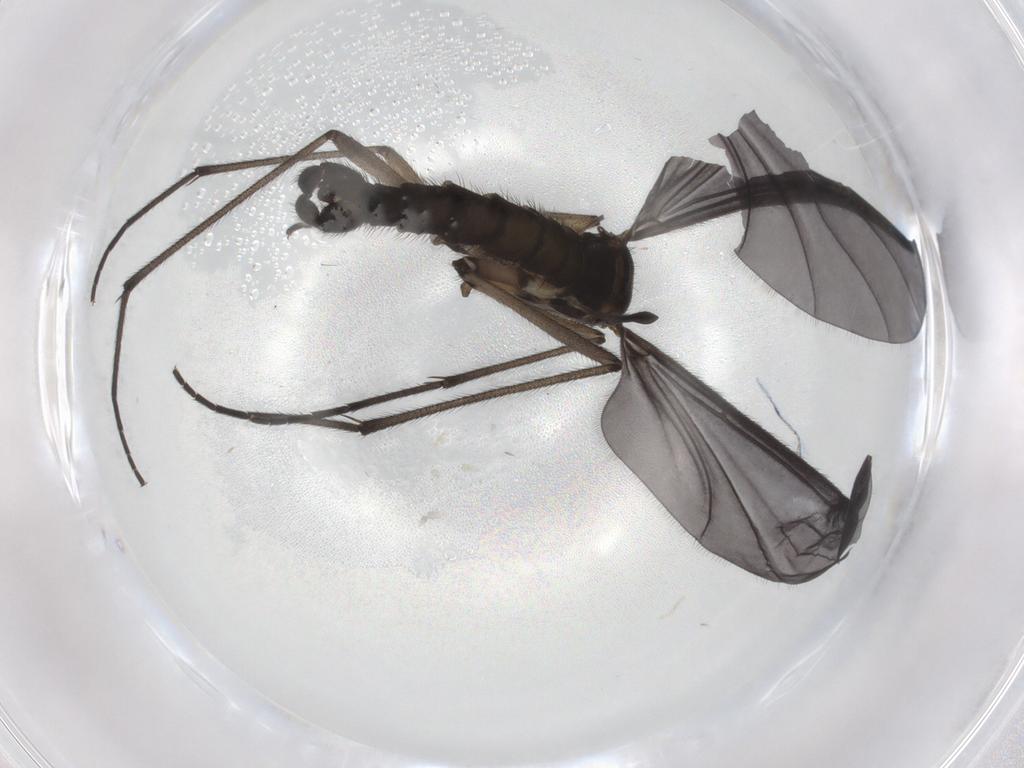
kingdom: Animalia
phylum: Arthropoda
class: Insecta
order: Diptera
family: Sciaridae
